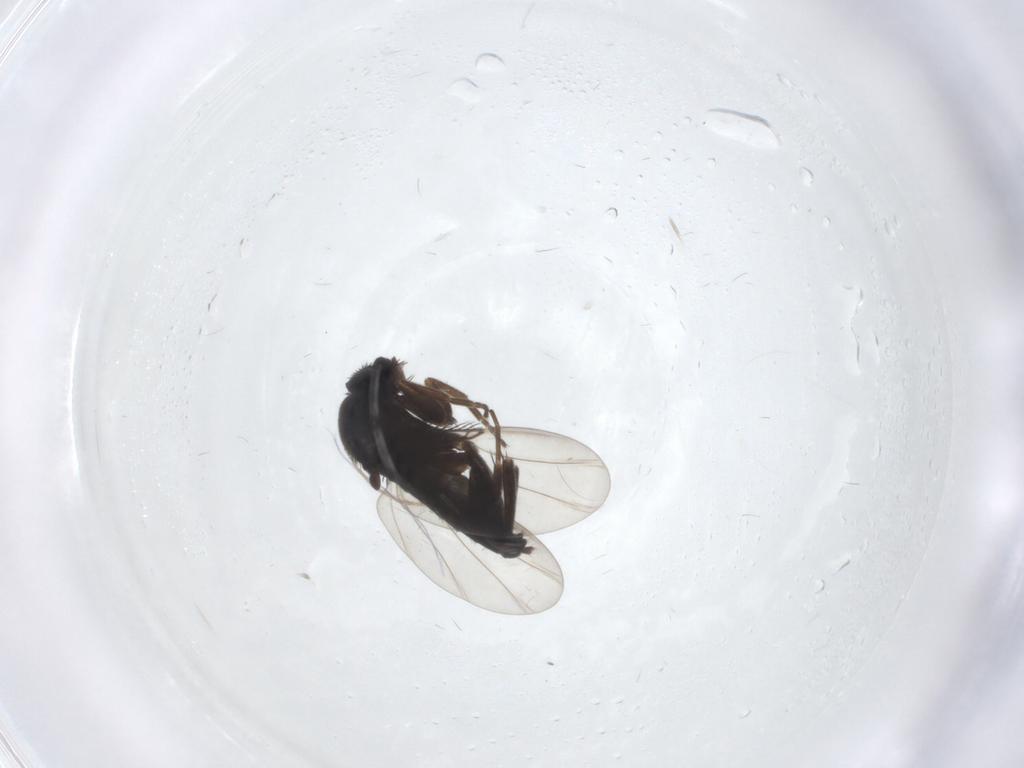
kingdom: Animalia
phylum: Arthropoda
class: Insecta
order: Diptera
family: Phoridae
